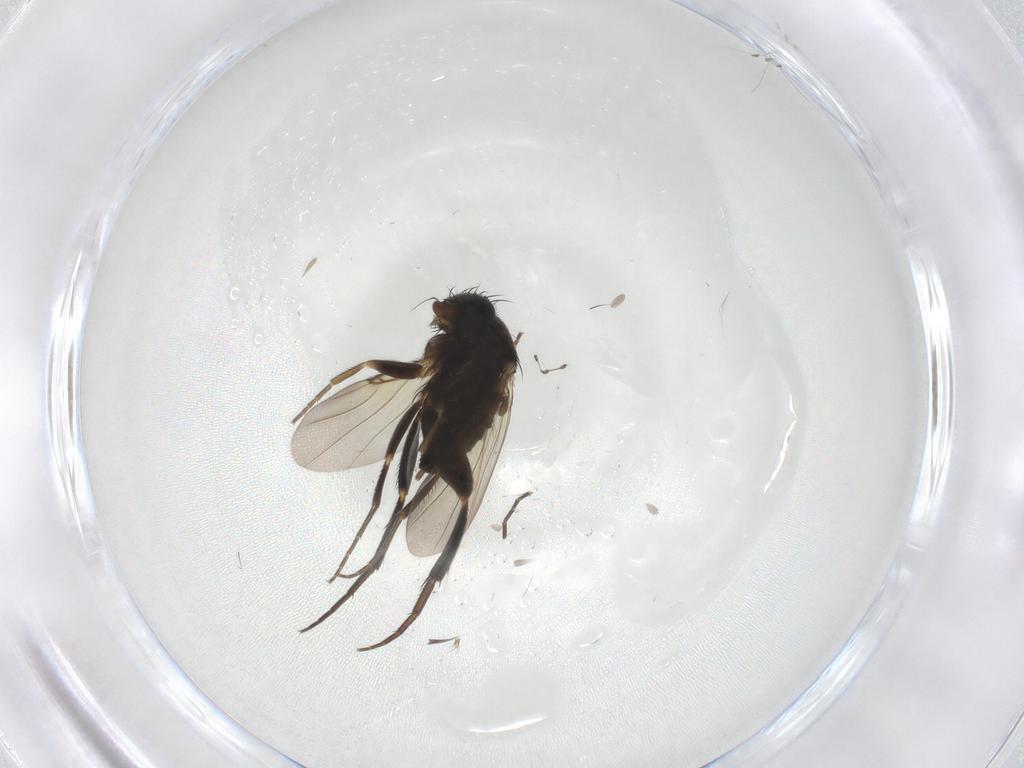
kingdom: Animalia
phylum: Arthropoda
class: Insecta
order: Diptera
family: Phoridae
